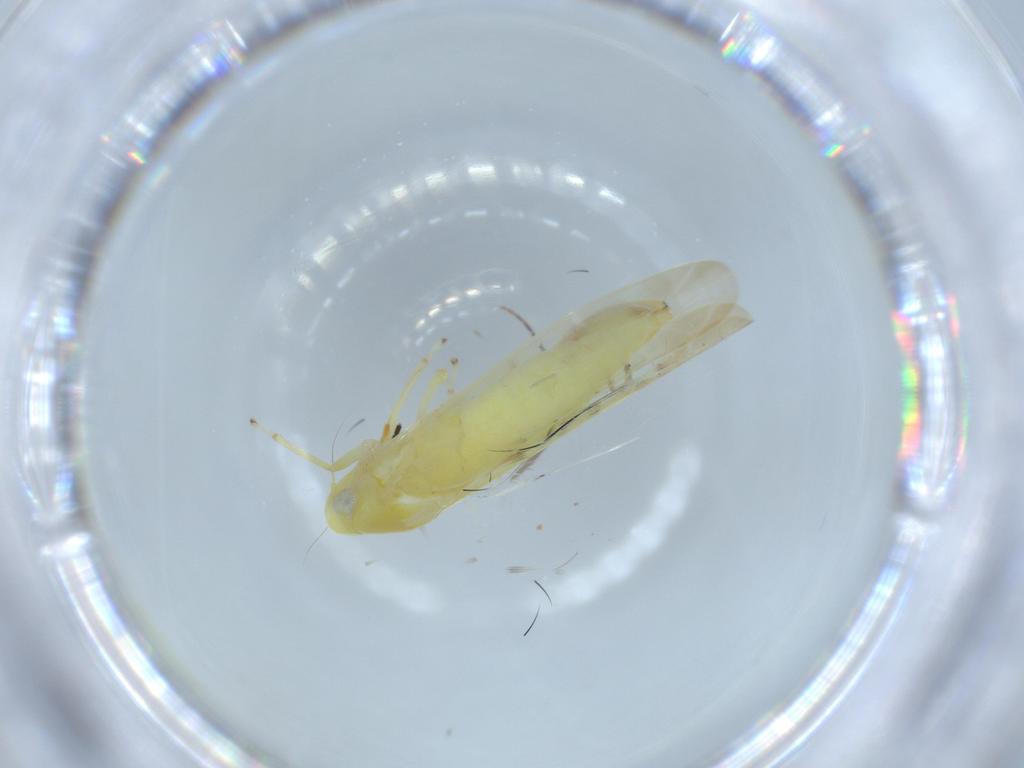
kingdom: Animalia
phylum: Arthropoda
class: Insecta
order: Hemiptera
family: Cicadellidae
